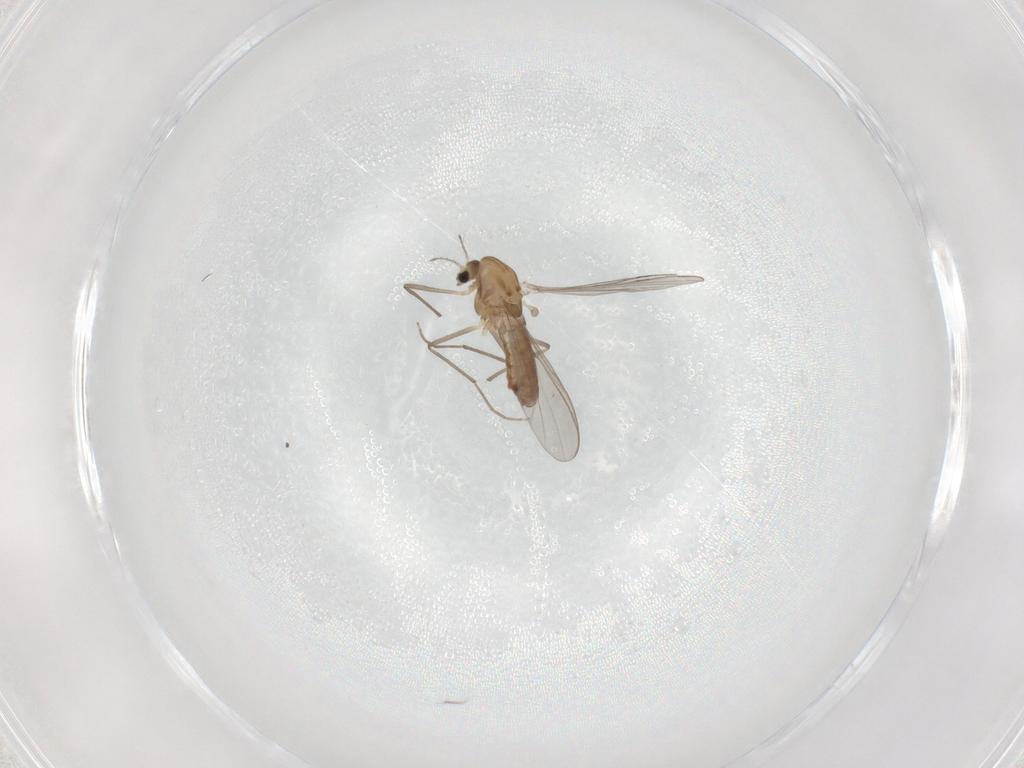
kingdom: Animalia
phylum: Arthropoda
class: Insecta
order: Diptera
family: Chironomidae
